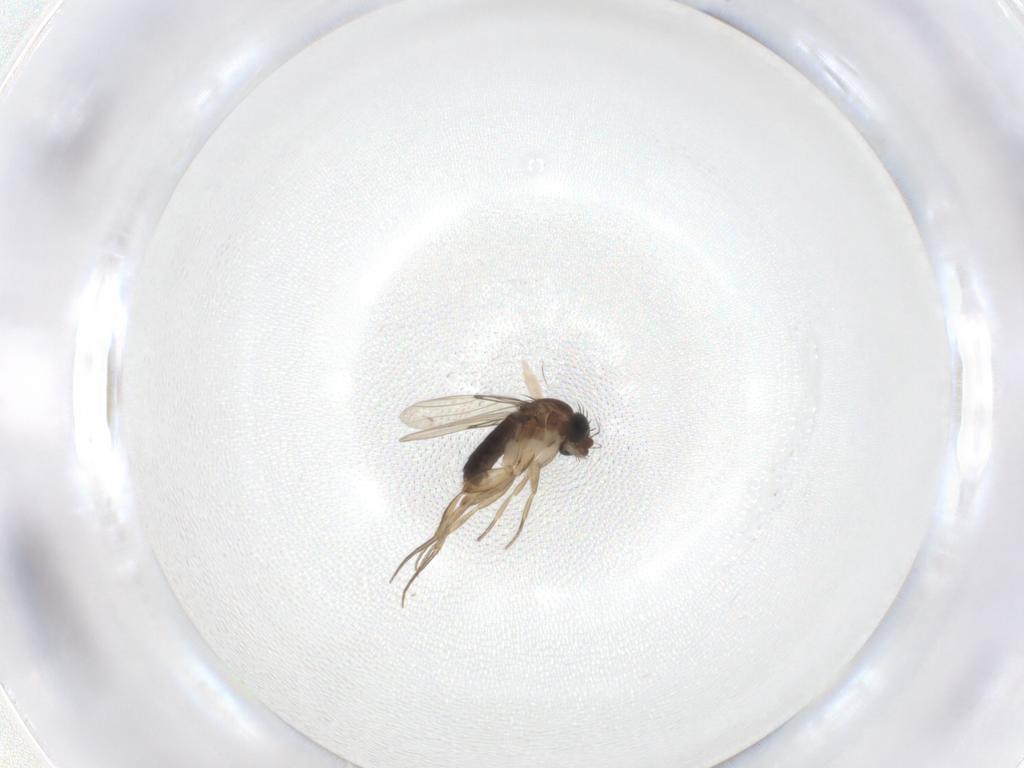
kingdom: Animalia
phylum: Arthropoda
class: Insecta
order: Diptera
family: Phoridae
